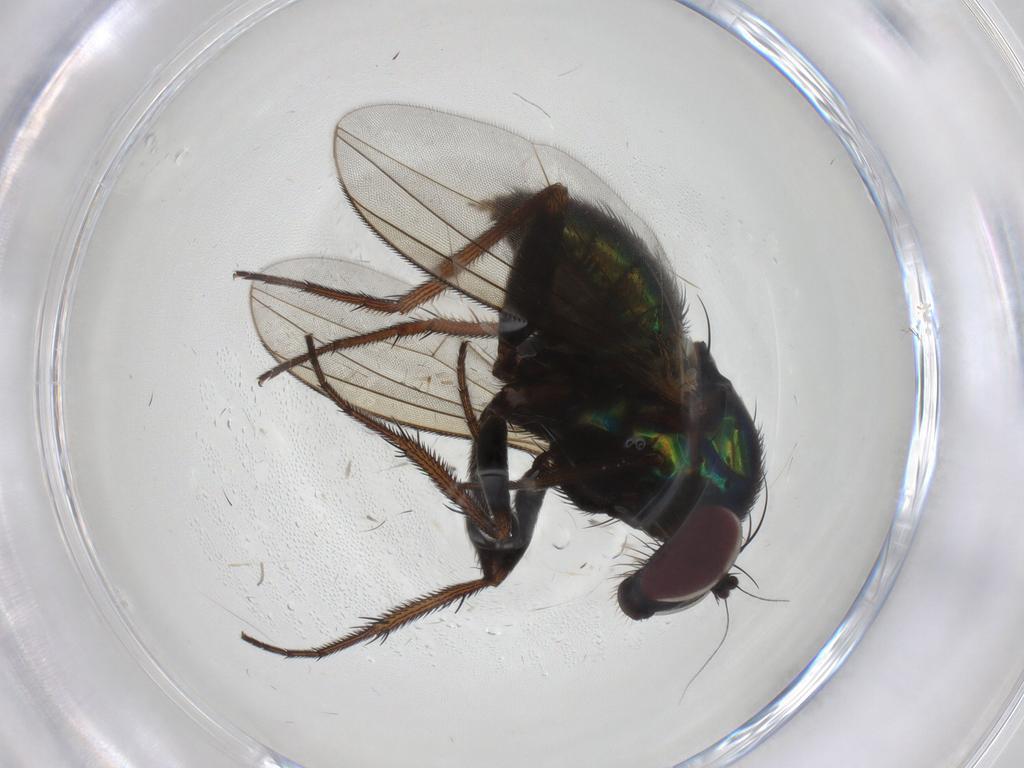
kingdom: Animalia
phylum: Arthropoda
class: Insecta
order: Diptera
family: Dolichopodidae
